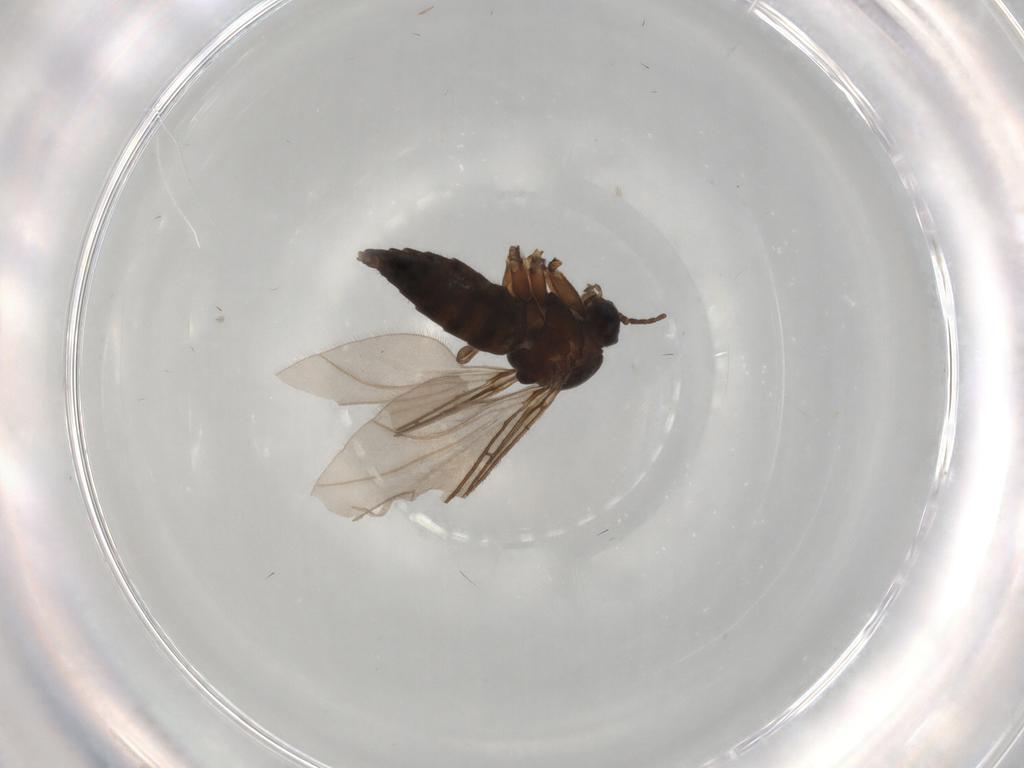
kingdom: Animalia
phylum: Arthropoda
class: Insecta
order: Diptera
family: Sciaridae
